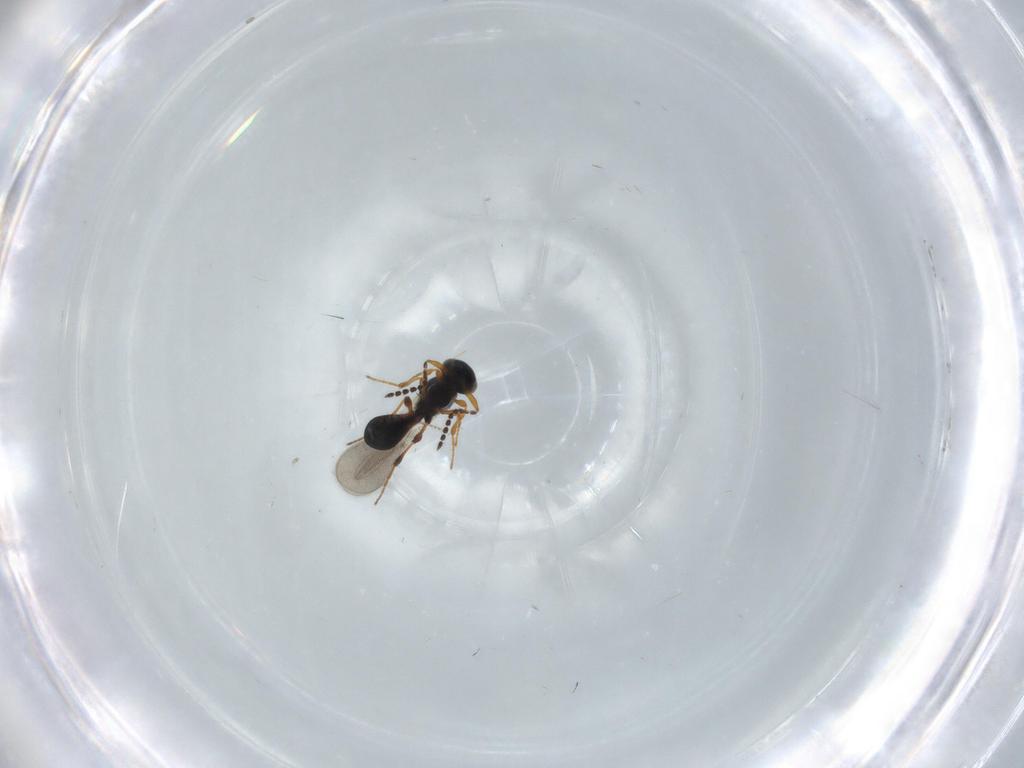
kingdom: Animalia
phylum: Arthropoda
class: Insecta
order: Hymenoptera
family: Platygastridae
